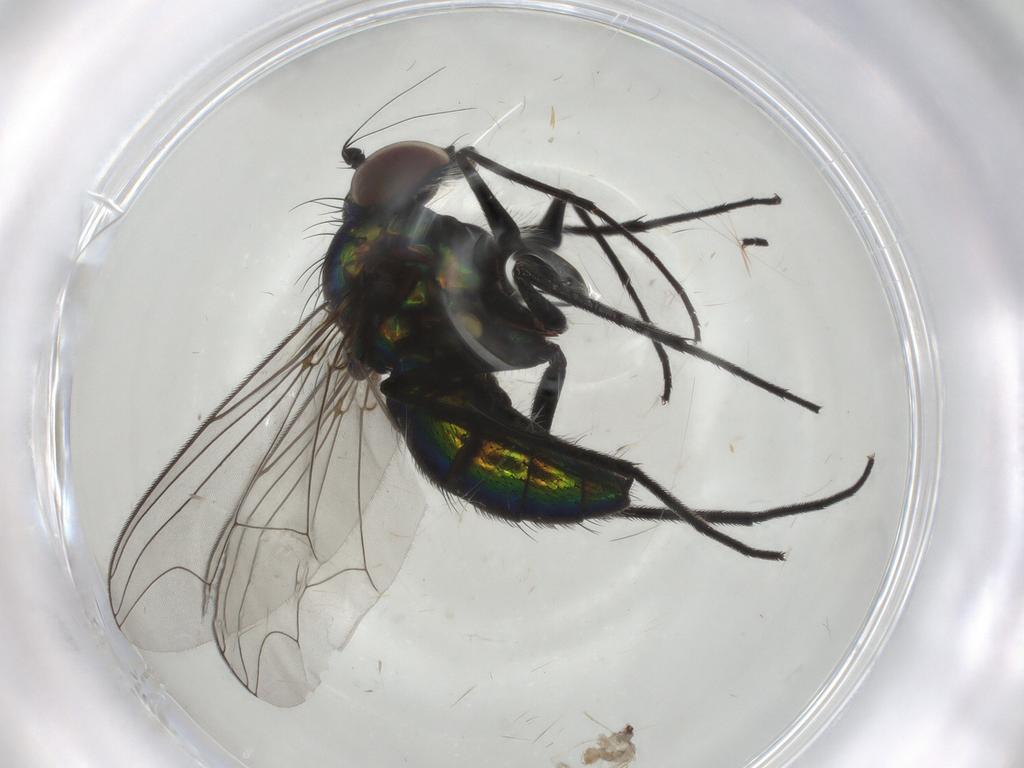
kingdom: Animalia
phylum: Arthropoda
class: Insecta
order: Diptera
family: Dolichopodidae
